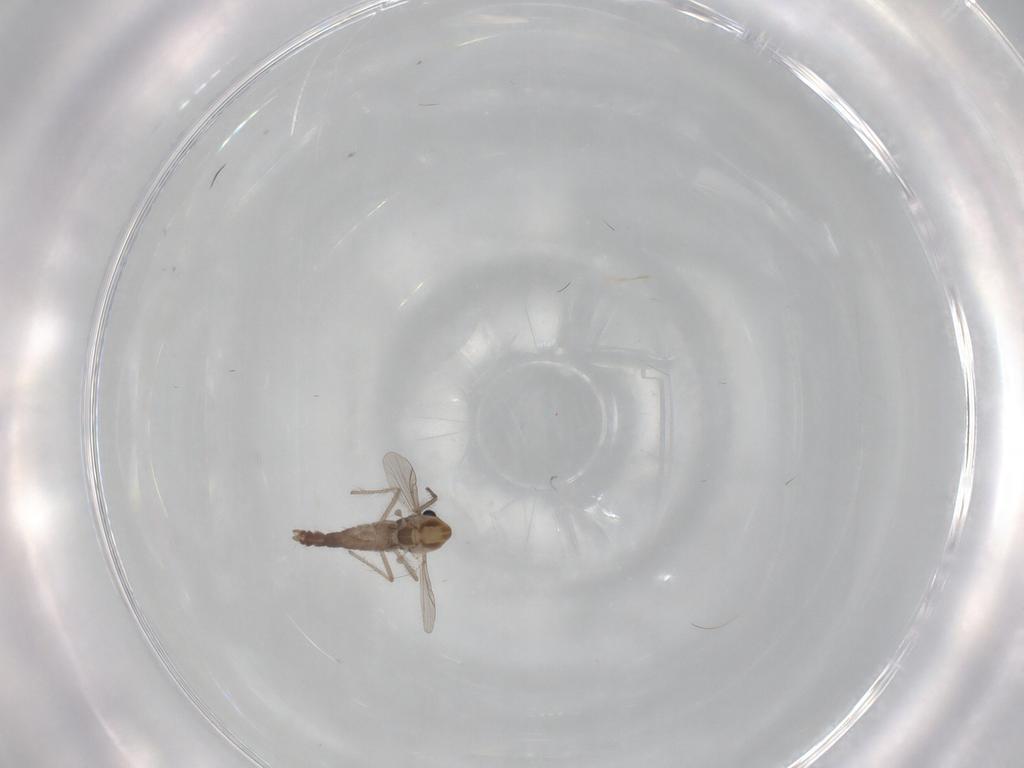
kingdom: Animalia
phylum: Arthropoda
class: Insecta
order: Diptera
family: Chironomidae
